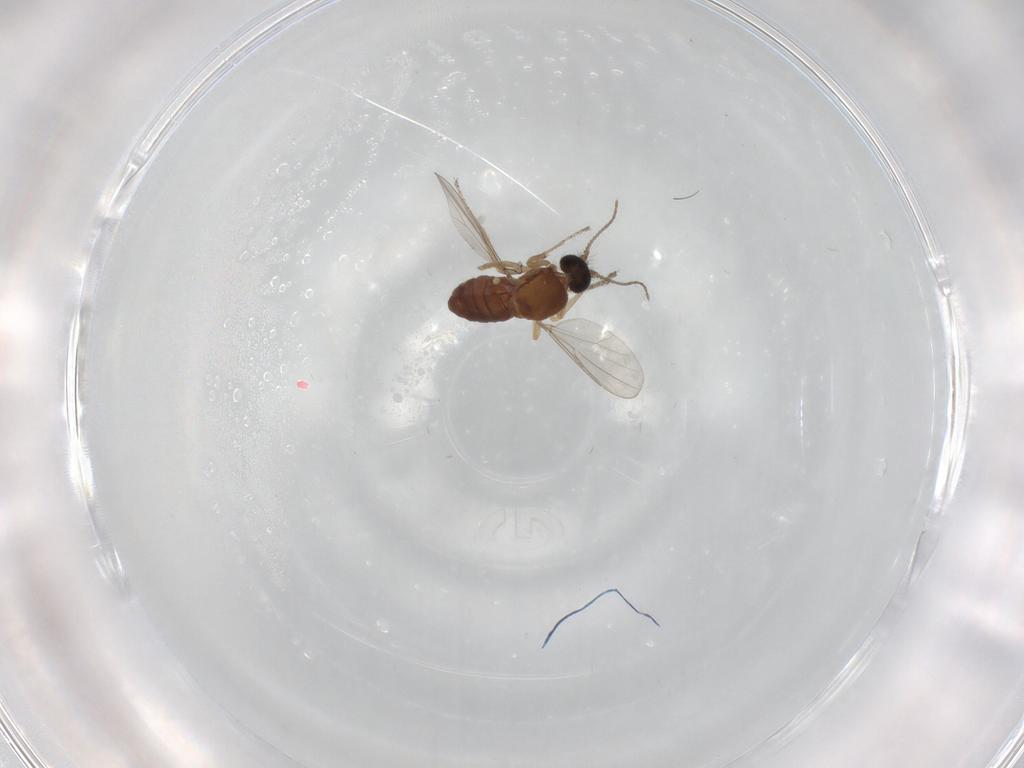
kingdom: Animalia
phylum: Arthropoda
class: Insecta
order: Diptera
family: Ceratopogonidae
